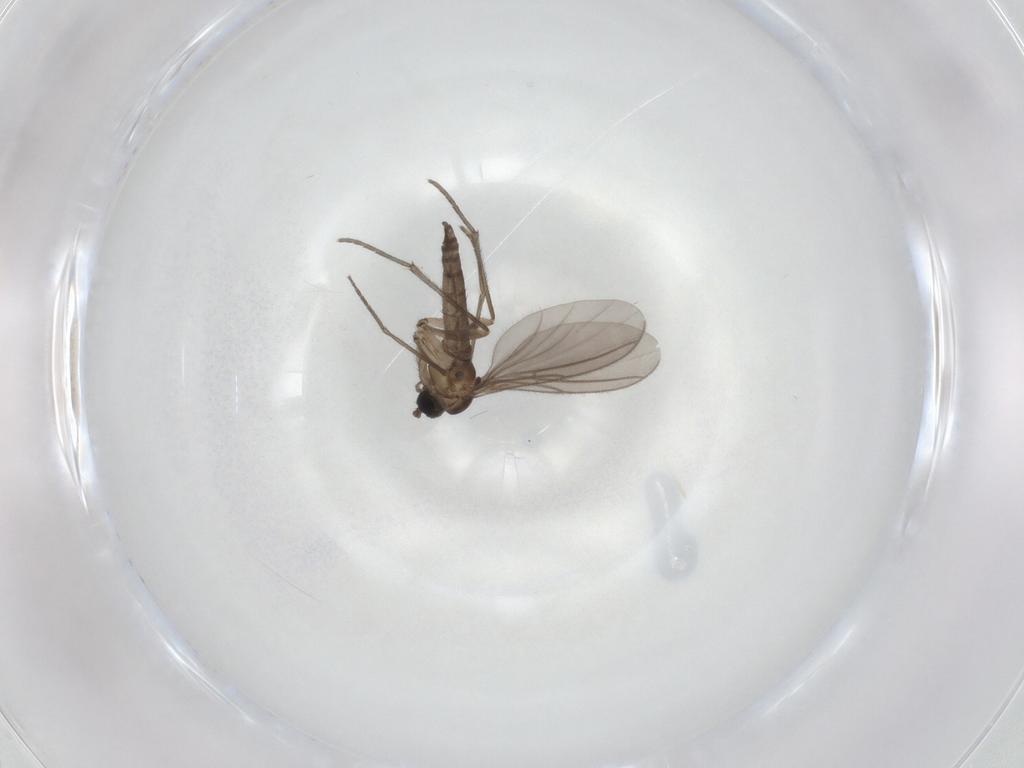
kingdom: Animalia
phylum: Arthropoda
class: Insecta
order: Diptera
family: Sciaridae
